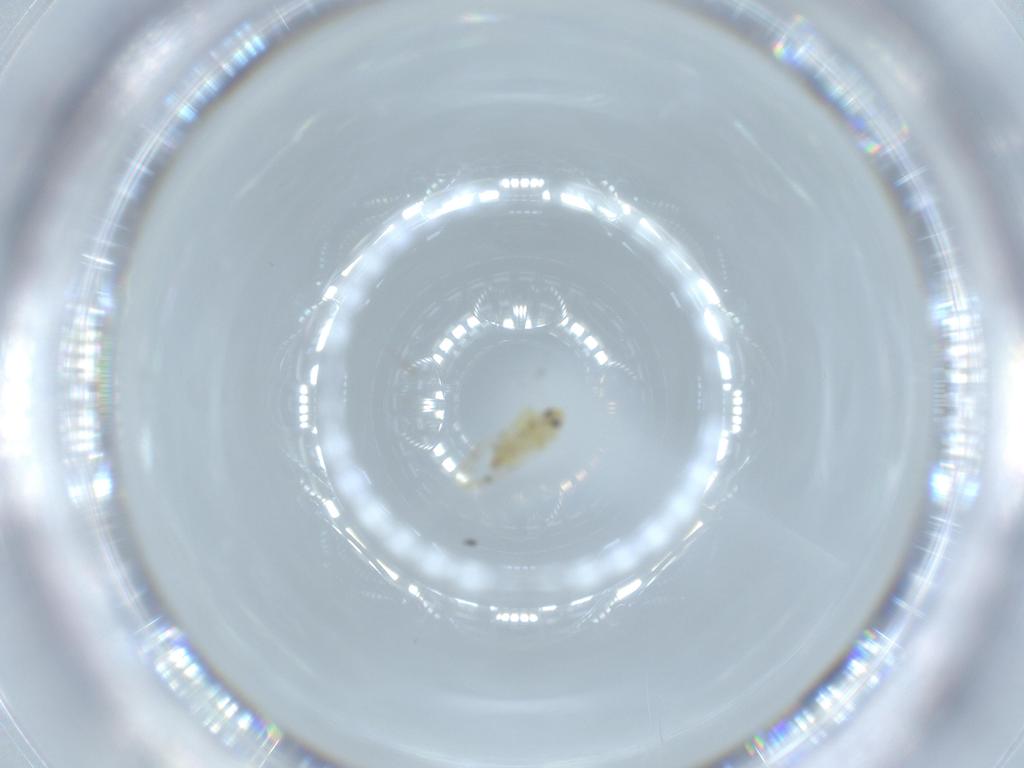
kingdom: Animalia
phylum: Arthropoda
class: Insecta
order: Hemiptera
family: Aleyrodidae
